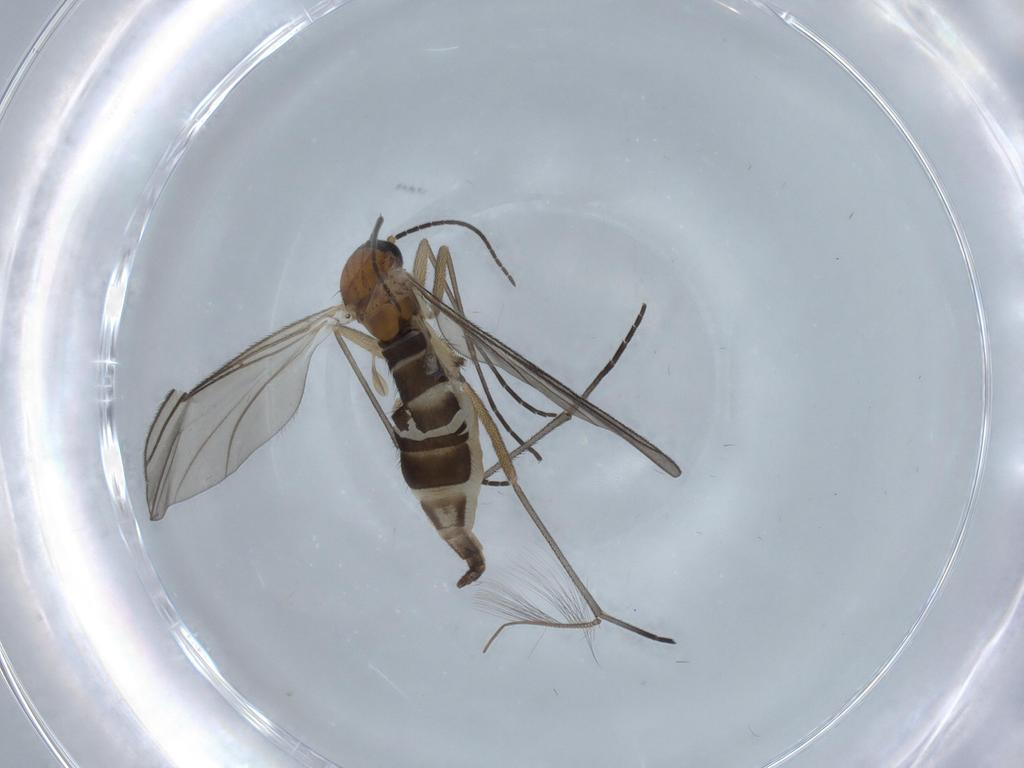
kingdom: Animalia
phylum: Arthropoda
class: Insecta
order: Diptera
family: Sciaridae
